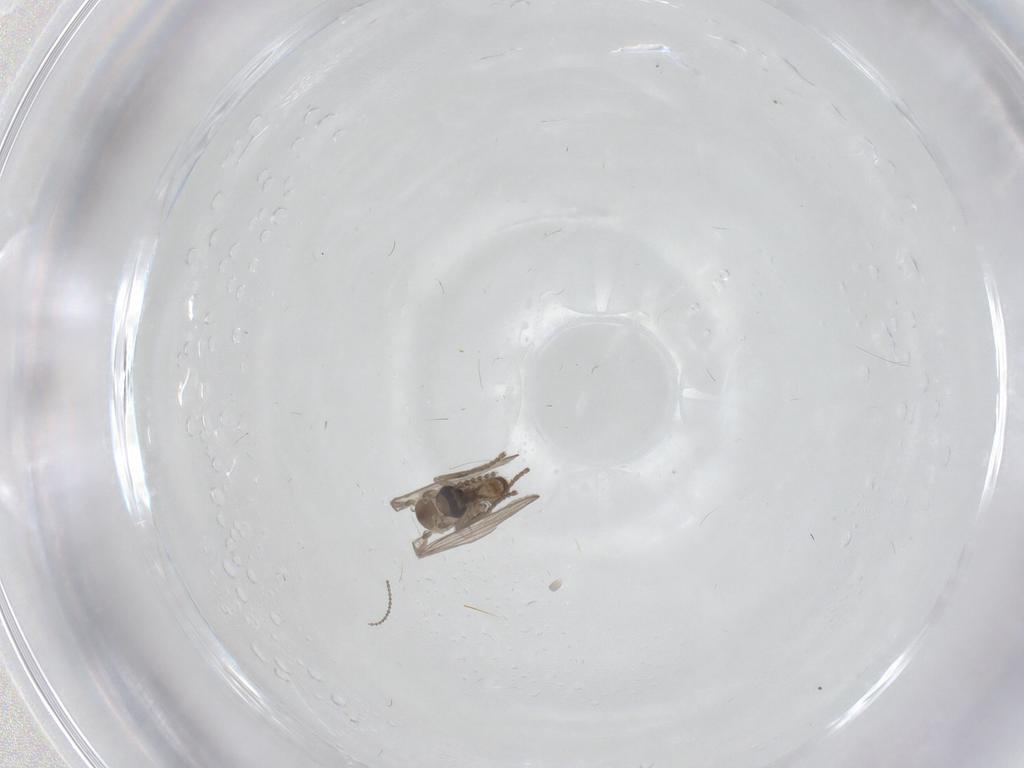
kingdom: Animalia
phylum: Arthropoda
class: Insecta
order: Diptera
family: Psychodidae
